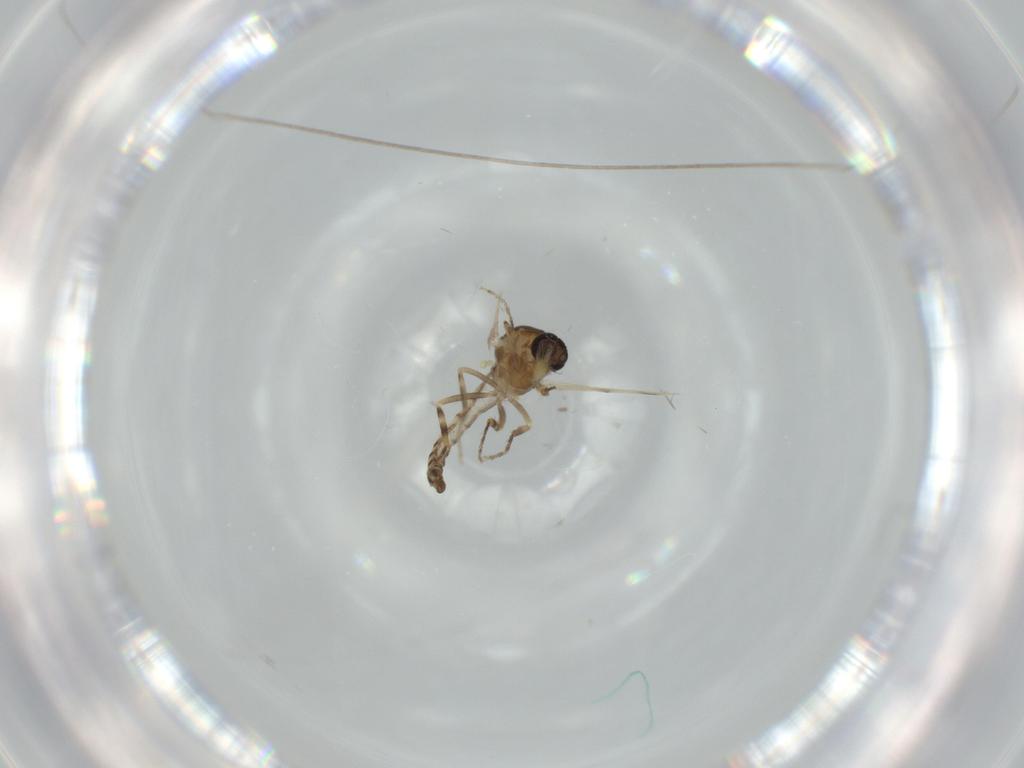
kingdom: Animalia
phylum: Arthropoda
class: Insecta
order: Diptera
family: Ceratopogonidae
